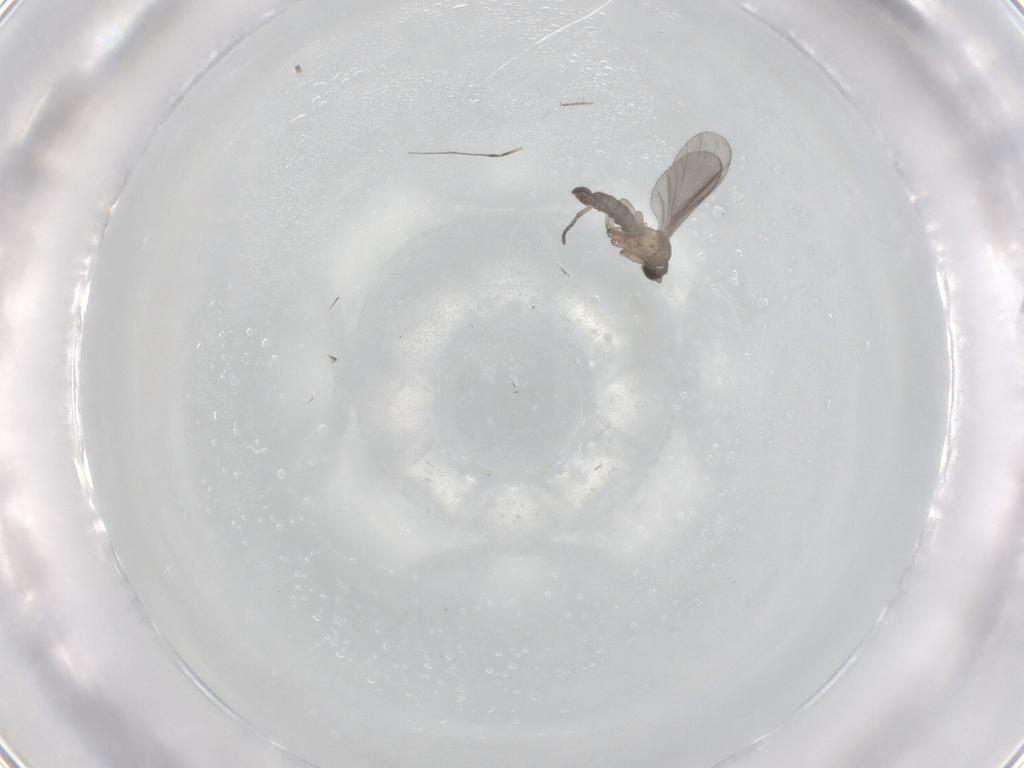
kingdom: Animalia
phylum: Arthropoda
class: Insecta
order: Diptera
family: Sciaridae
